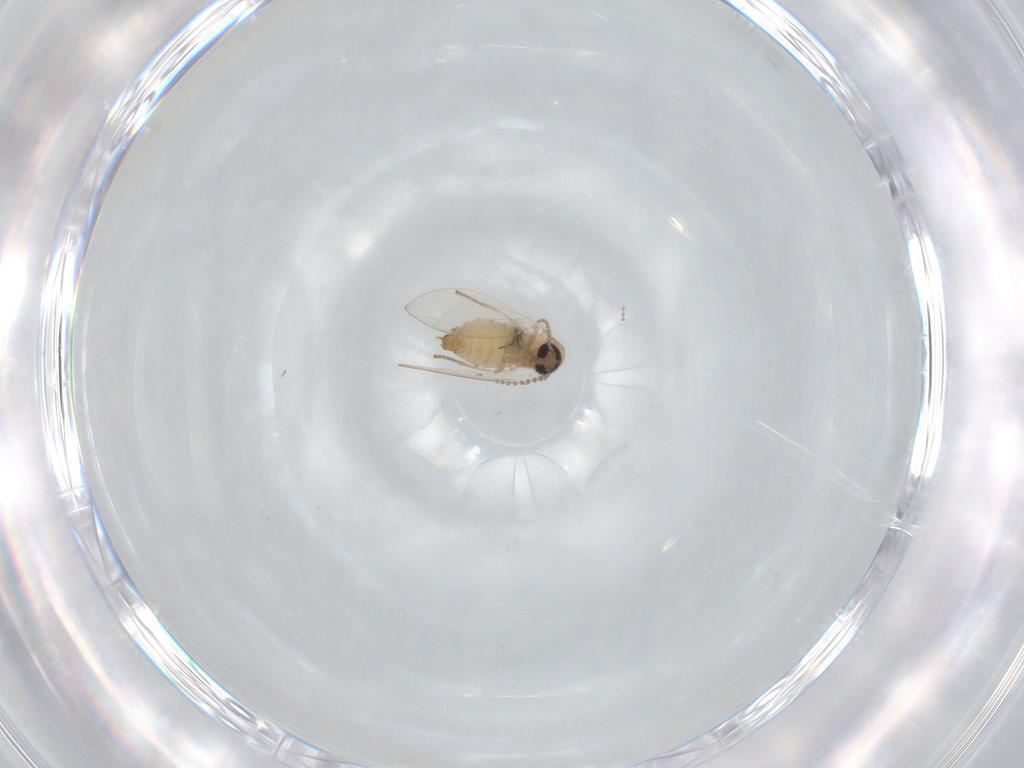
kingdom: Animalia
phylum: Arthropoda
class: Insecta
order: Diptera
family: Psychodidae
